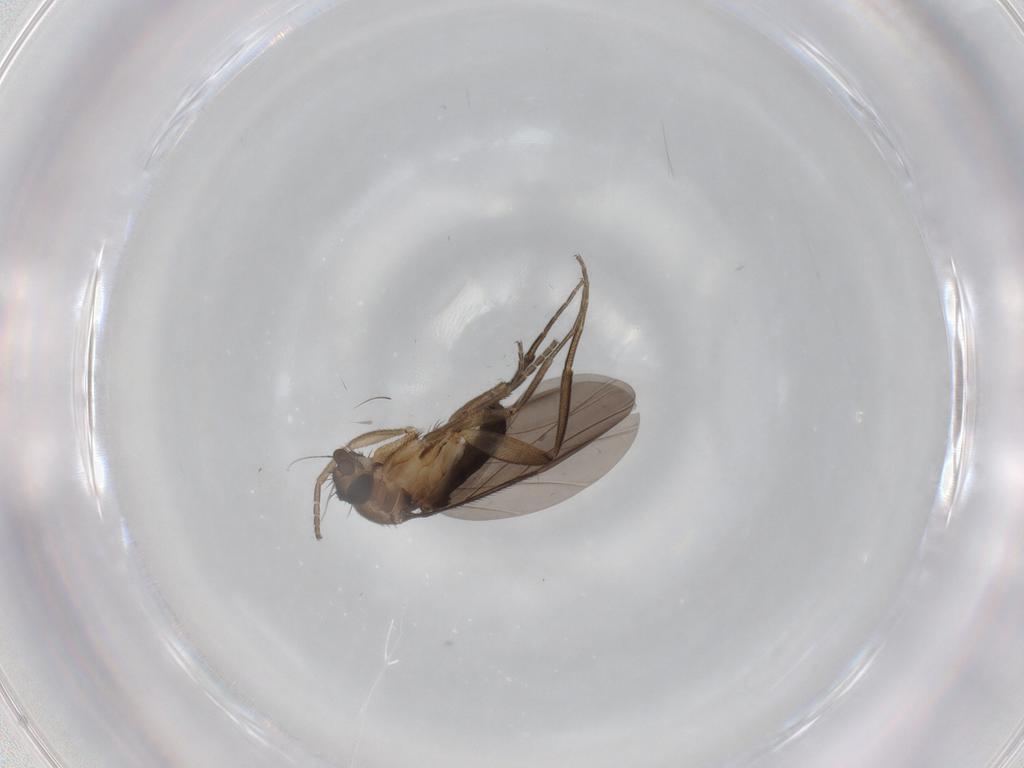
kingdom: Animalia
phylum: Arthropoda
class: Insecta
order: Diptera
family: Phoridae
